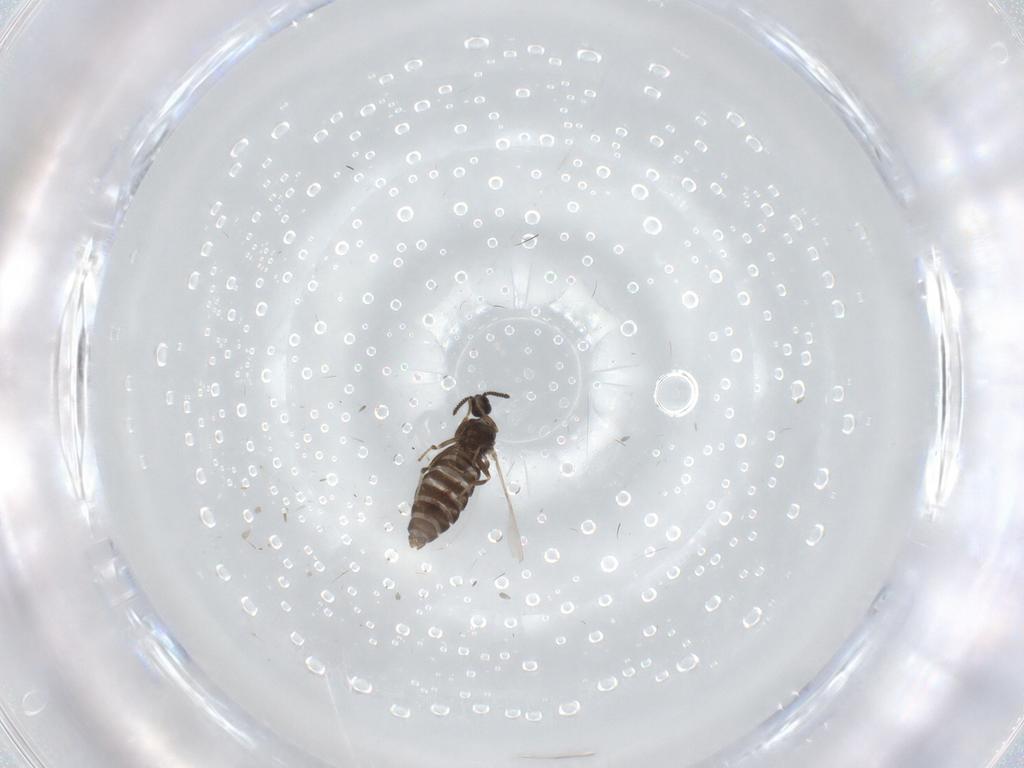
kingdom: Animalia
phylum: Arthropoda
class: Insecta
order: Diptera
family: Scatopsidae
